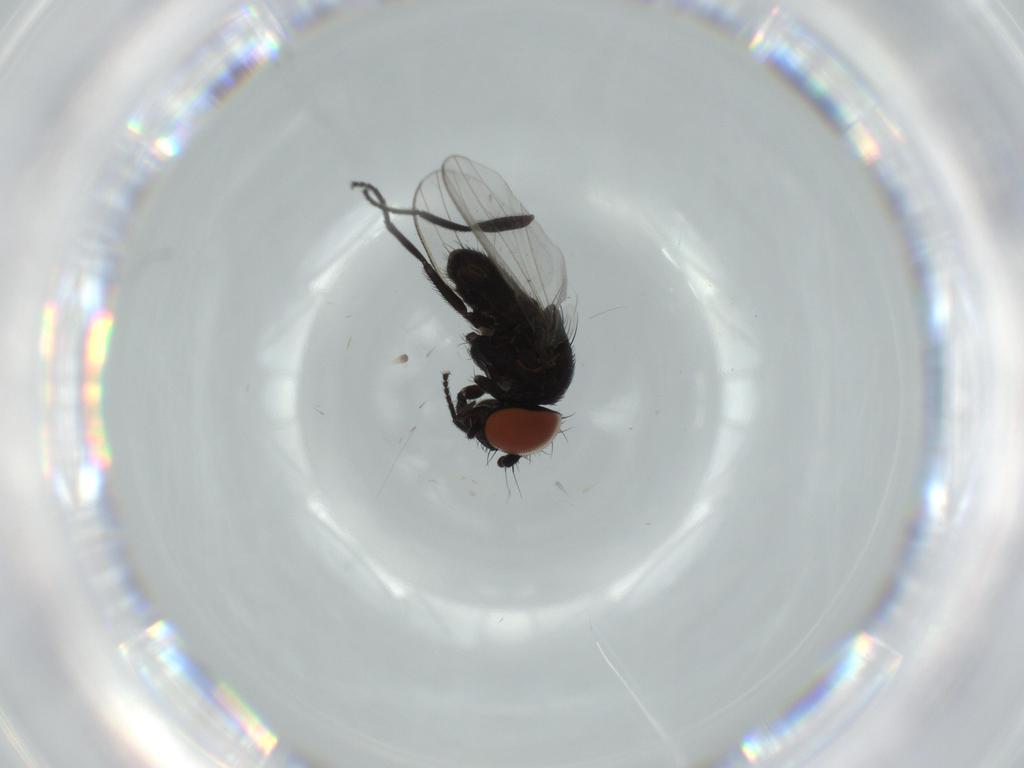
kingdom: Animalia
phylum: Arthropoda
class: Insecta
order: Diptera
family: Milichiidae
